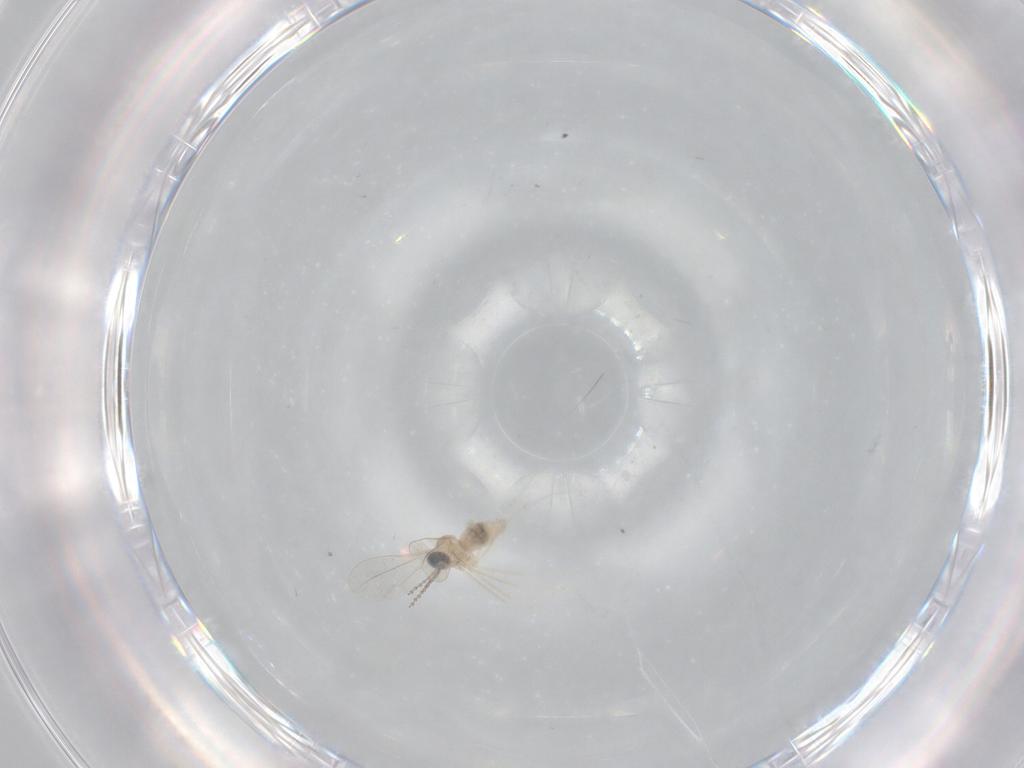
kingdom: Animalia
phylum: Arthropoda
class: Insecta
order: Diptera
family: Cecidomyiidae
